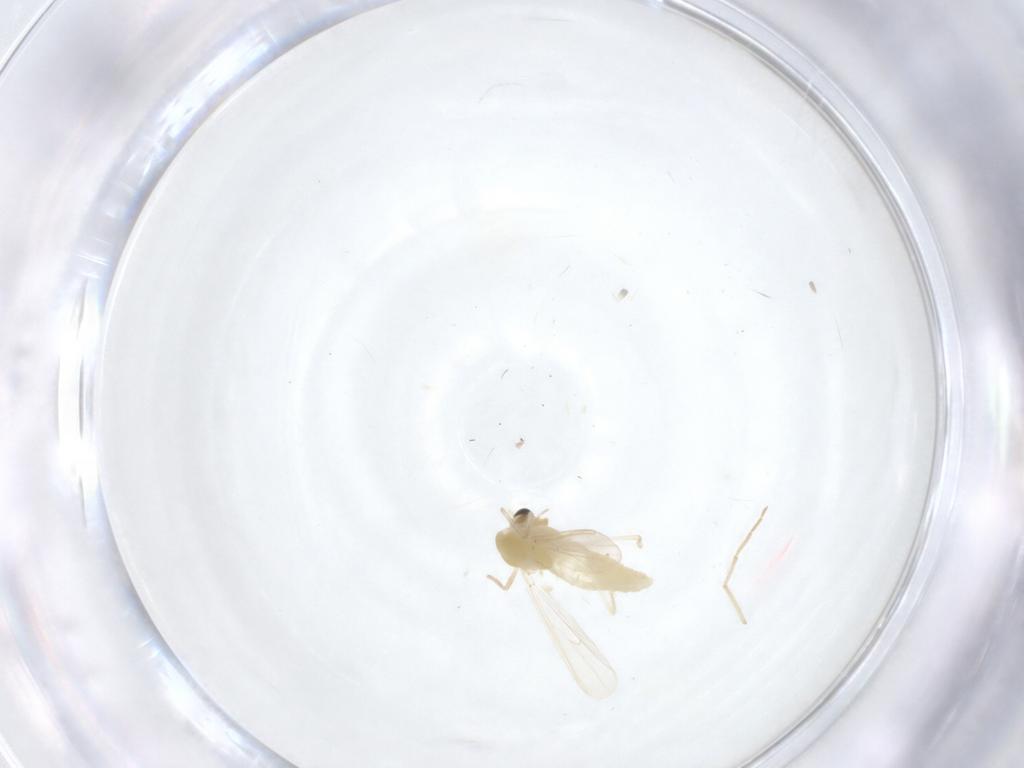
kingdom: Animalia
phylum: Arthropoda
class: Insecta
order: Diptera
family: Chironomidae
